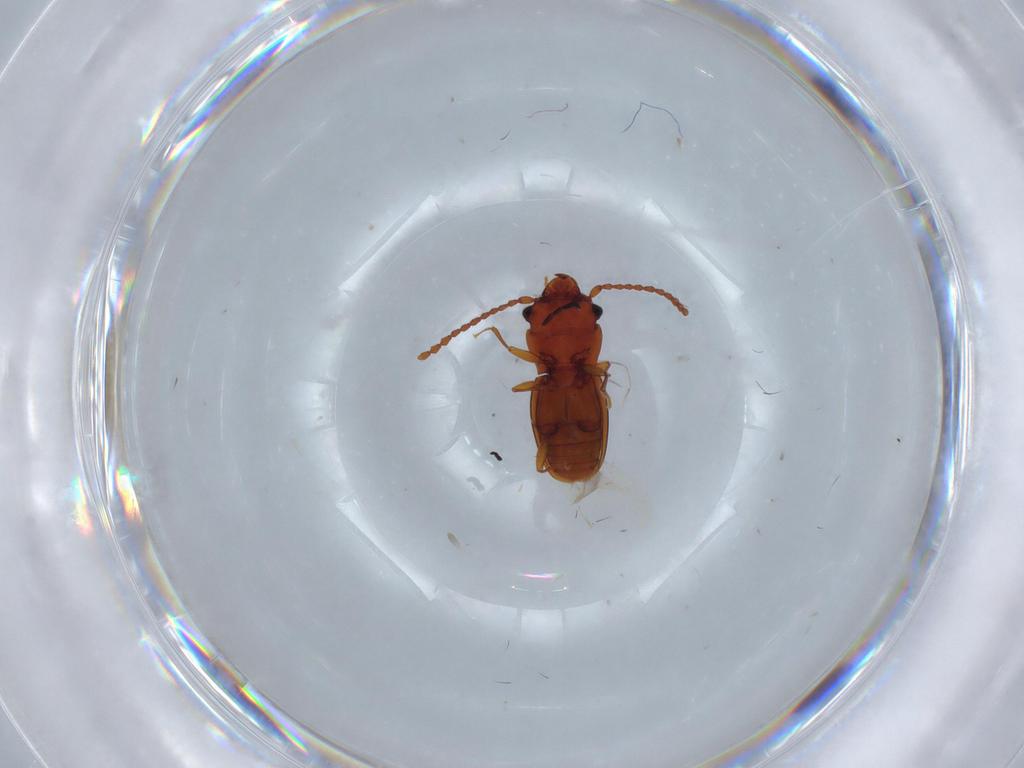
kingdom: Animalia
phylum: Arthropoda
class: Insecta
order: Coleoptera
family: Laemophloeidae
